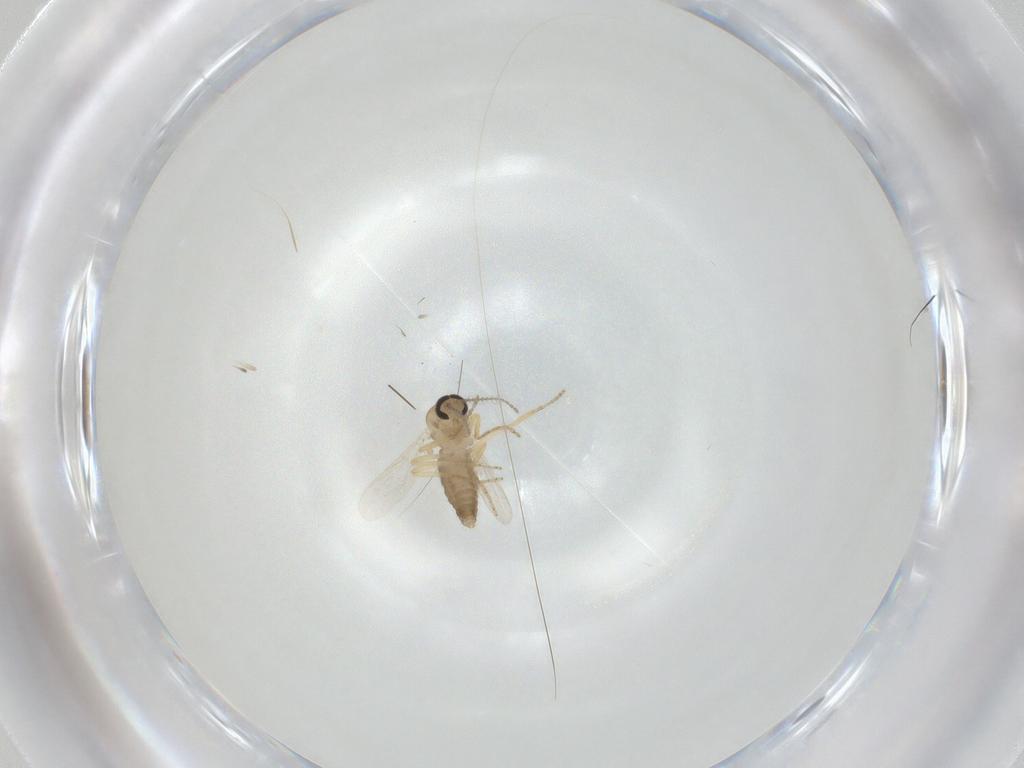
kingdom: Animalia
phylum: Arthropoda
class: Insecta
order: Diptera
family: Ceratopogonidae
